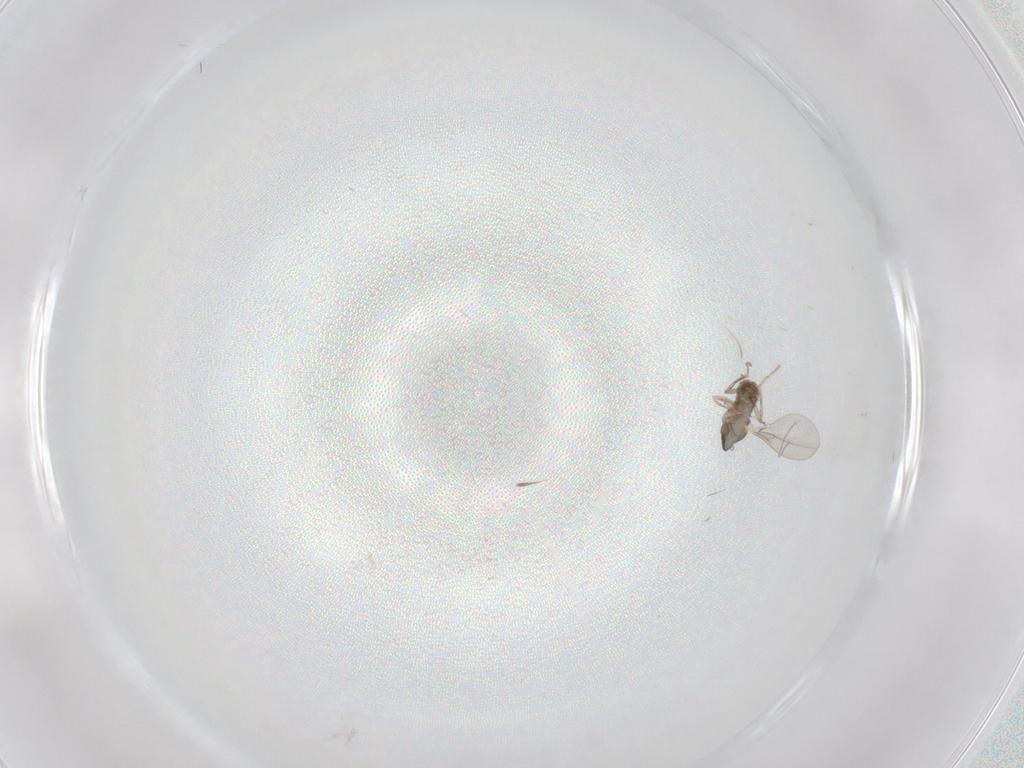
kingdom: Animalia
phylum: Arthropoda
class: Insecta
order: Diptera
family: Cecidomyiidae
